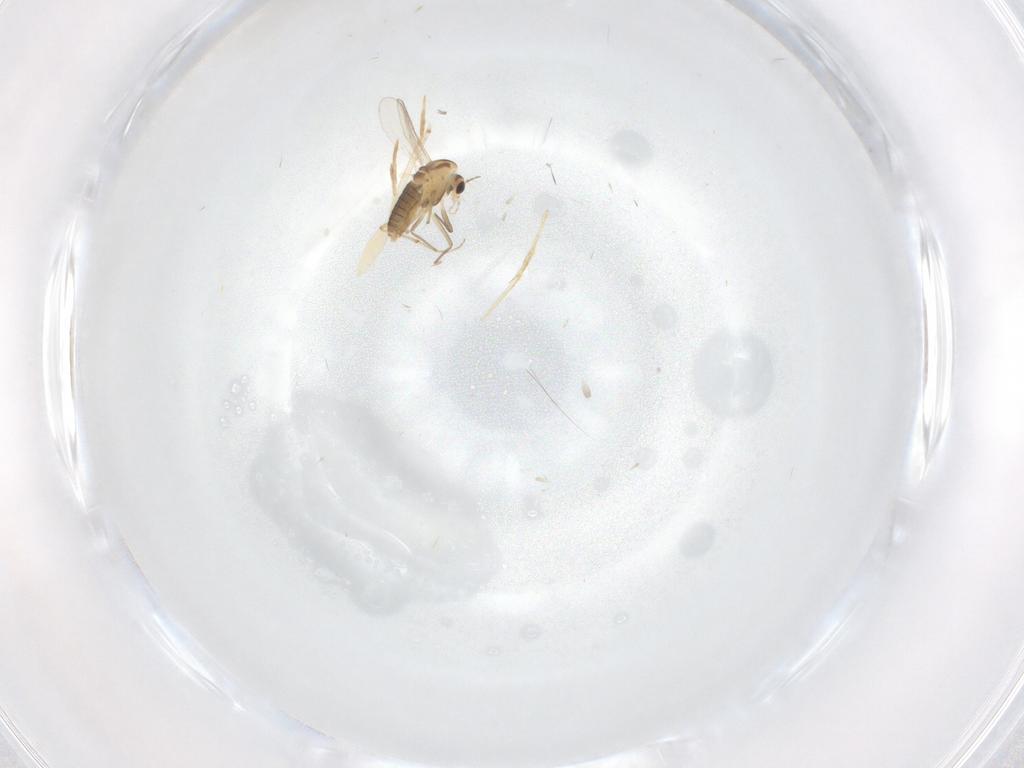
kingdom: Animalia
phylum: Arthropoda
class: Insecta
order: Diptera
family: Chironomidae
